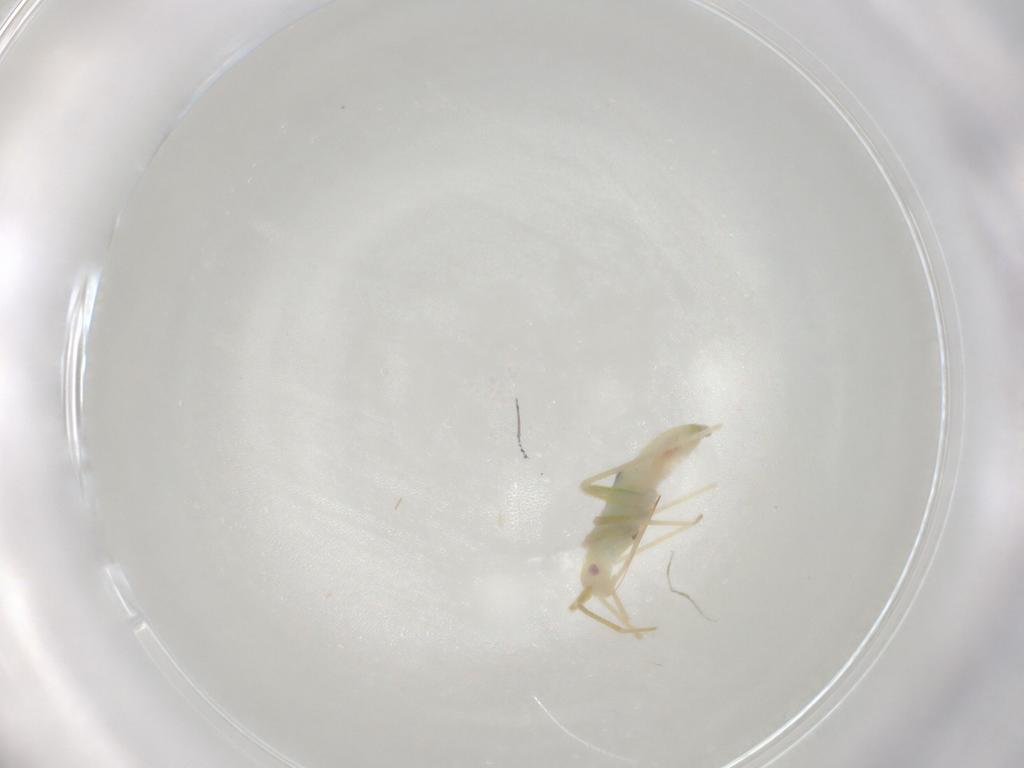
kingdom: Animalia
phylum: Arthropoda
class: Insecta
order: Hemiptera
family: Miridae
